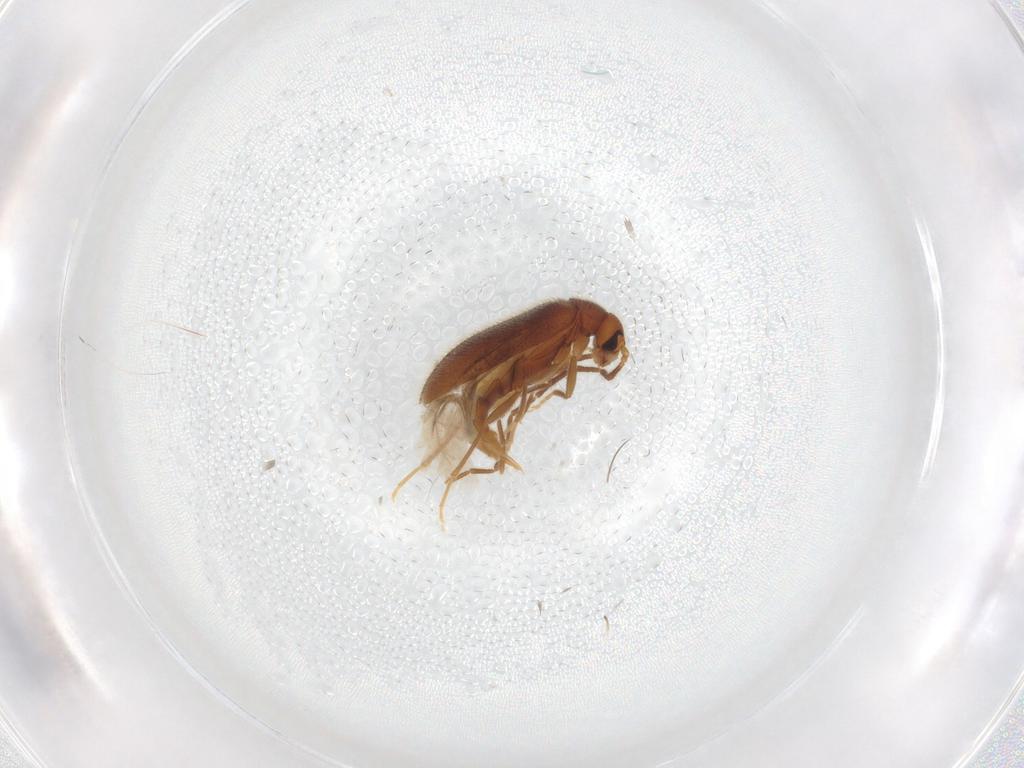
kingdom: Animalia
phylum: Arthropoda
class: Insecta
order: Coleoptera
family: Scraptiidae
